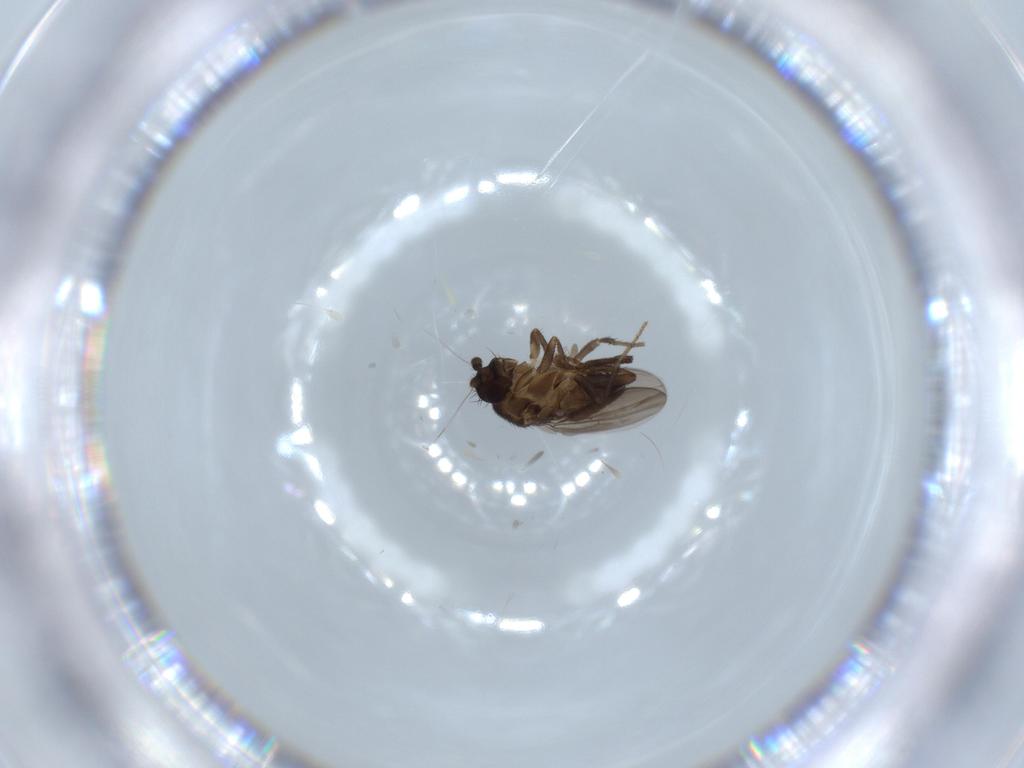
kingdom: Animalia
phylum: Arthropoda
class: Insecta
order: Diptera
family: Sphaeroceridae
